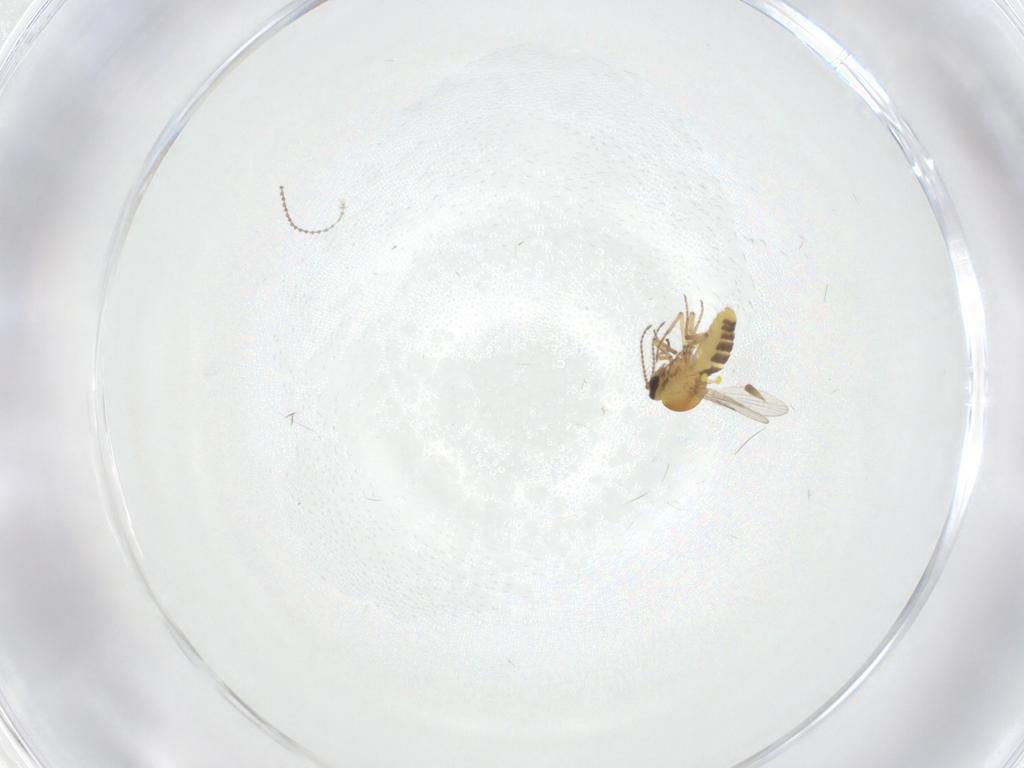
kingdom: Animalia
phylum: Arthropoda
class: Insecta
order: Diptera
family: Cecidomyiidae
